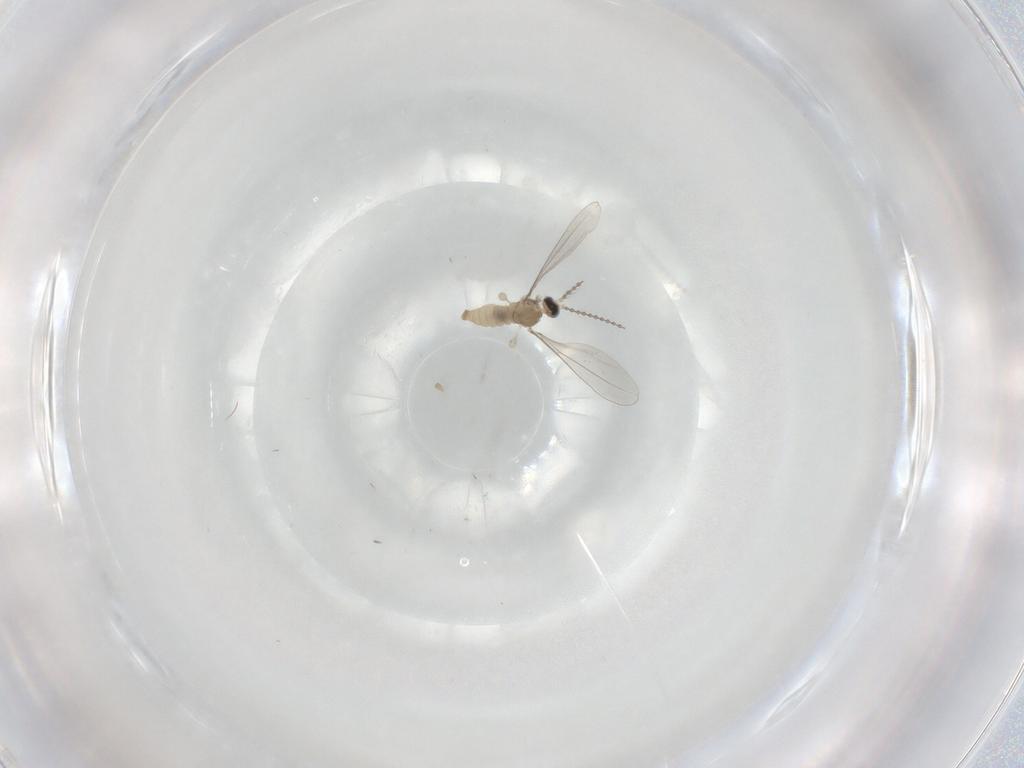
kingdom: Animalia
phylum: Arthropoda
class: Insecta
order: Diptera
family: Cecidomyiidae
